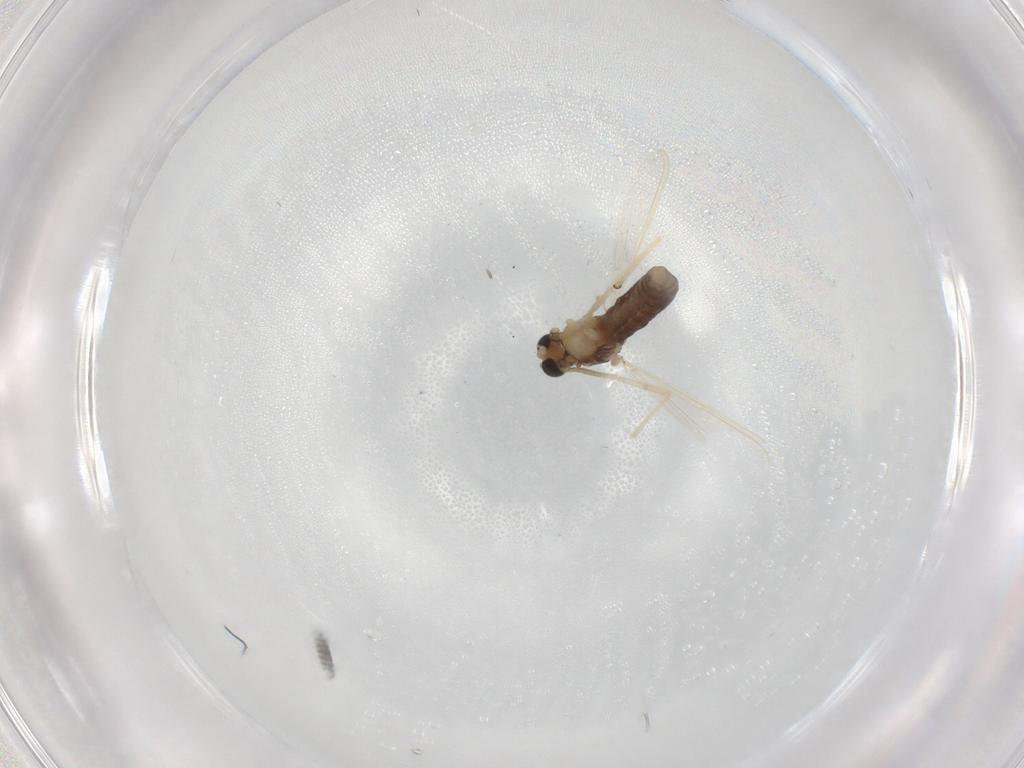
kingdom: Animalia
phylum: Arthropoda
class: Insecta
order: Diptera
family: Chironomidae
